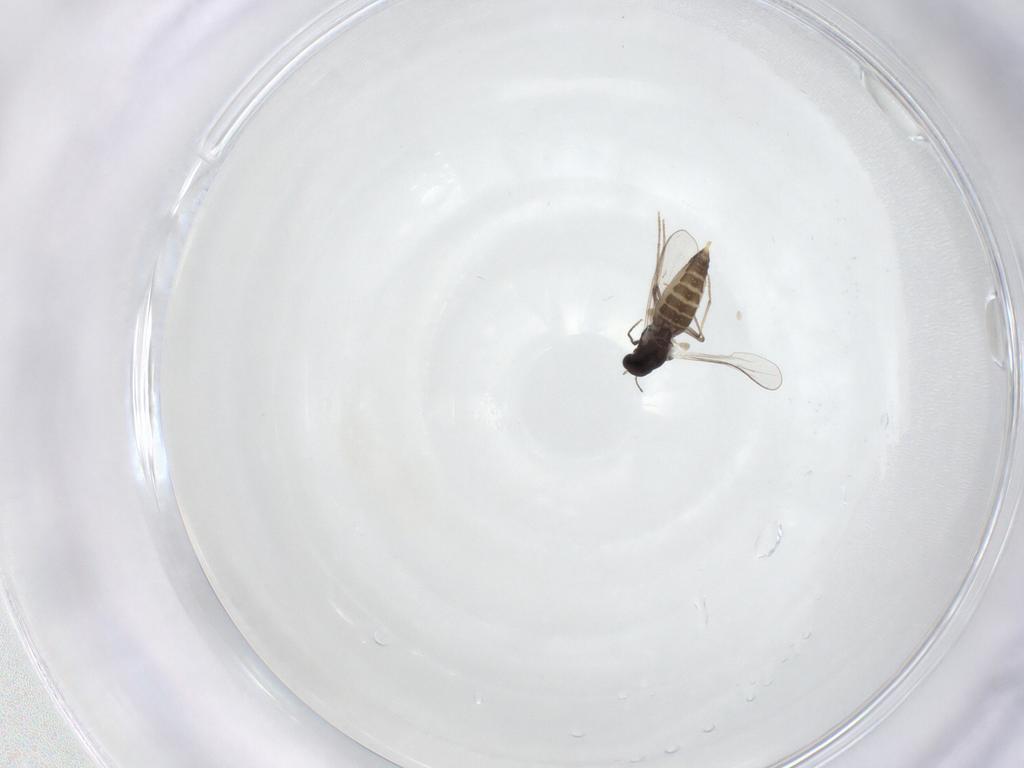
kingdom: Animalia
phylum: Arthropoda
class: Insecta
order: Diptera
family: Chironomidae
